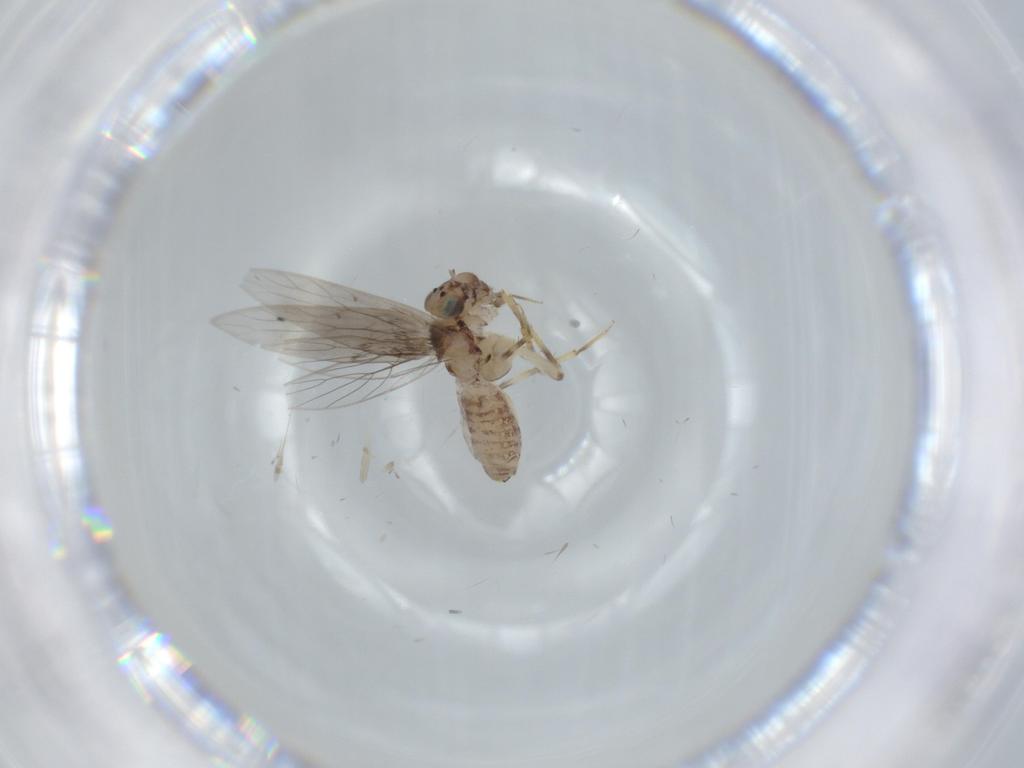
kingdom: Animalia
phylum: Arthropoda
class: Insecta
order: Psocodea
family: Lepidopsocidae
